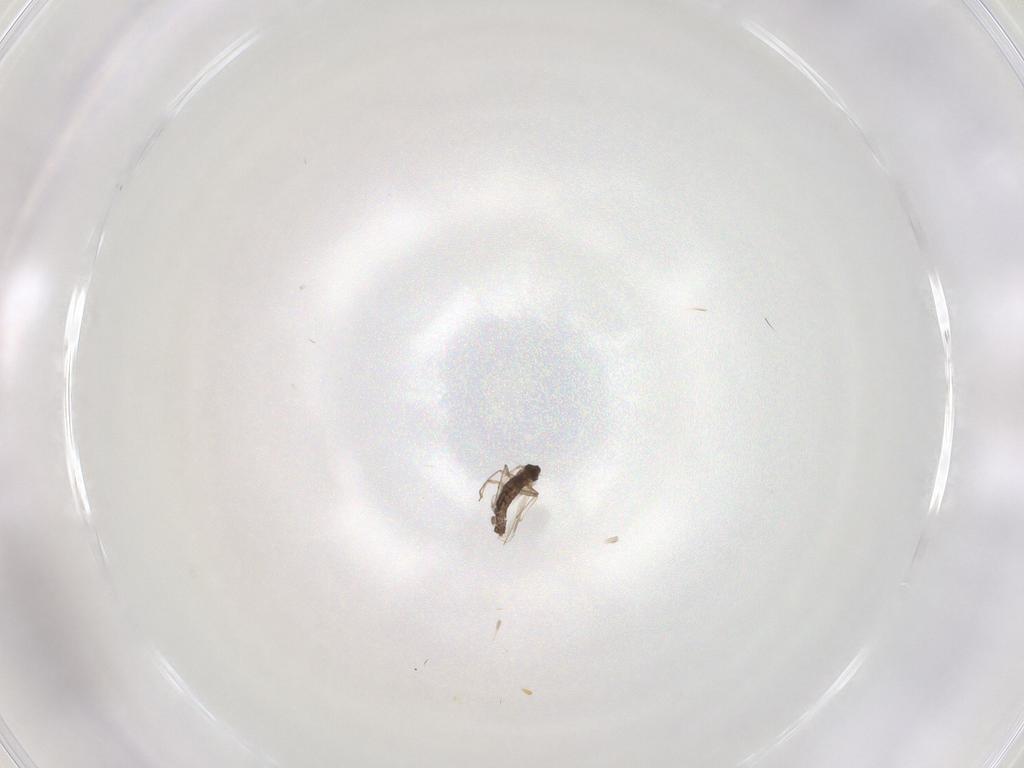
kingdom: Animalia
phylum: Arthropoda
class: Insecta
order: Diptera
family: Chironomidae
